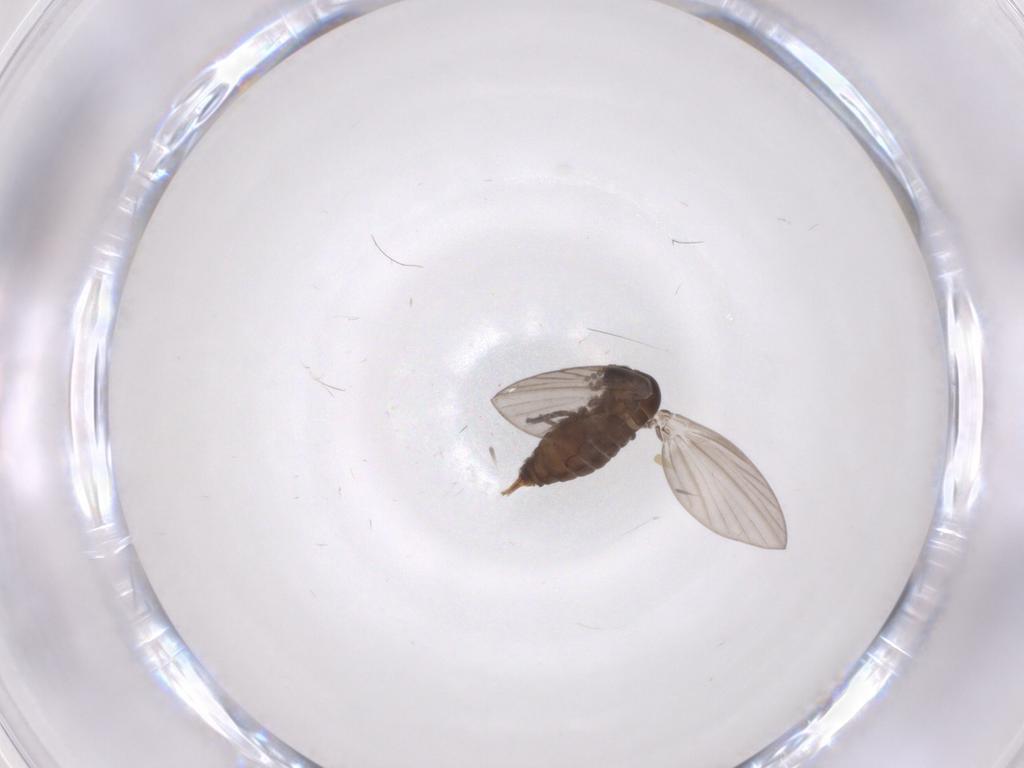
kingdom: Animalia
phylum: Arthropoda
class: Insecta
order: Diptera
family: Psychodidae
